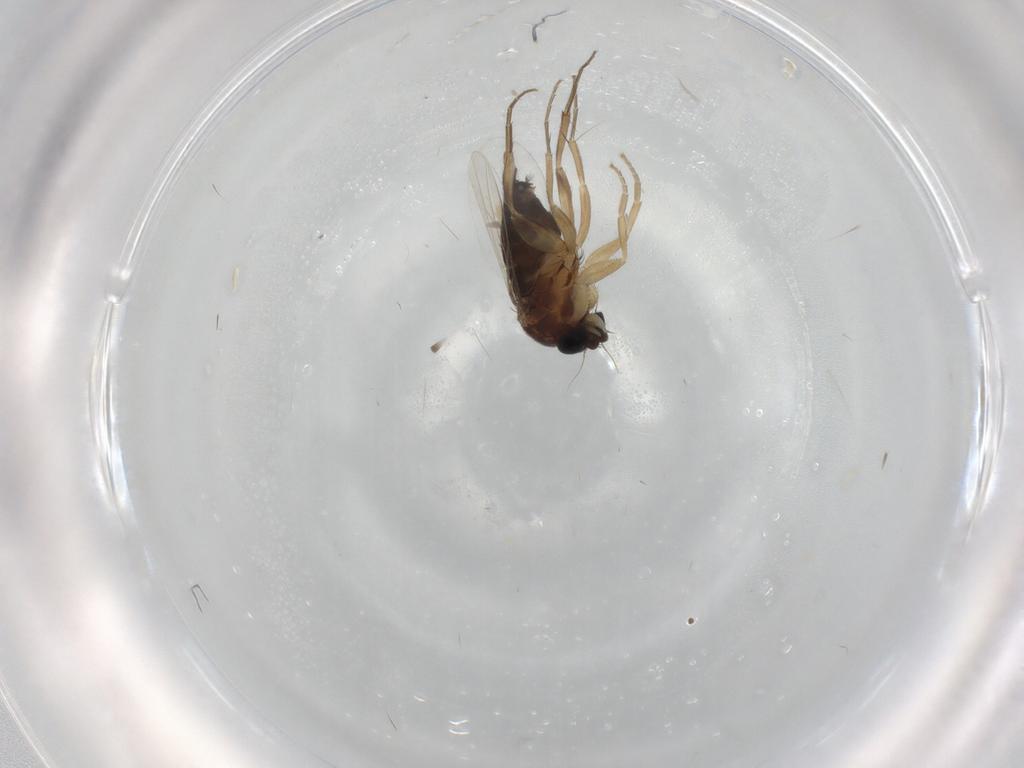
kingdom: Animalia
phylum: Arthropoda
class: Insecta
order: Diptera
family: Phoridae
